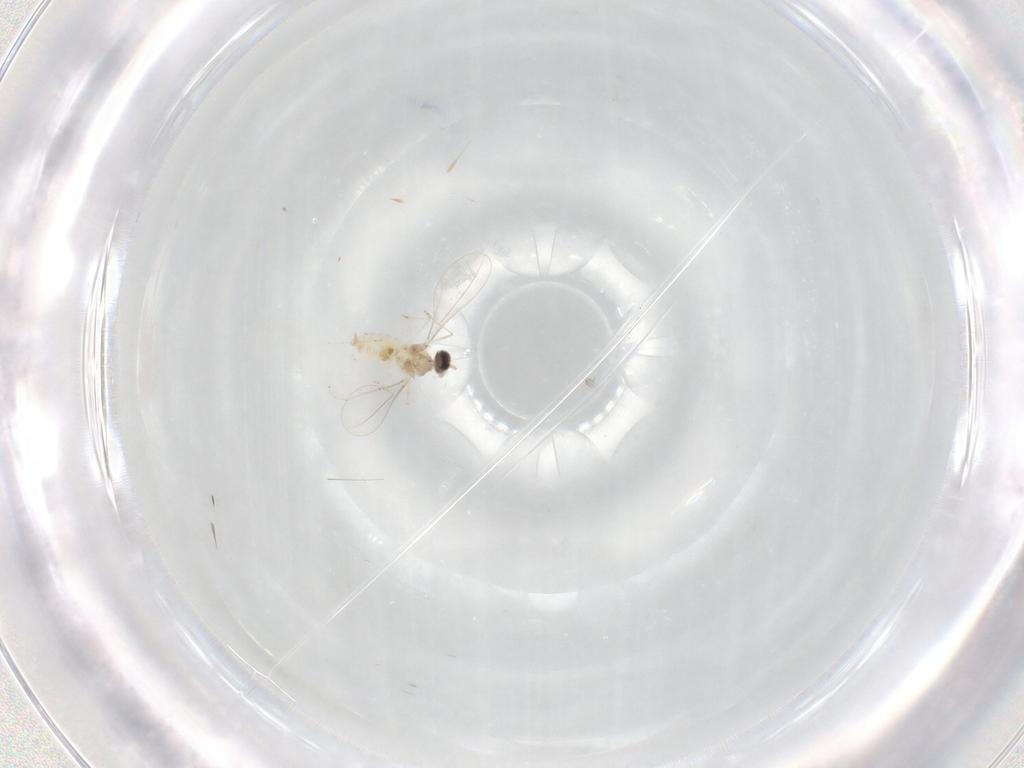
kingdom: Animalia
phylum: Arthropoda
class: Insecta
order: Diptera
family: Cecidomyiidae
